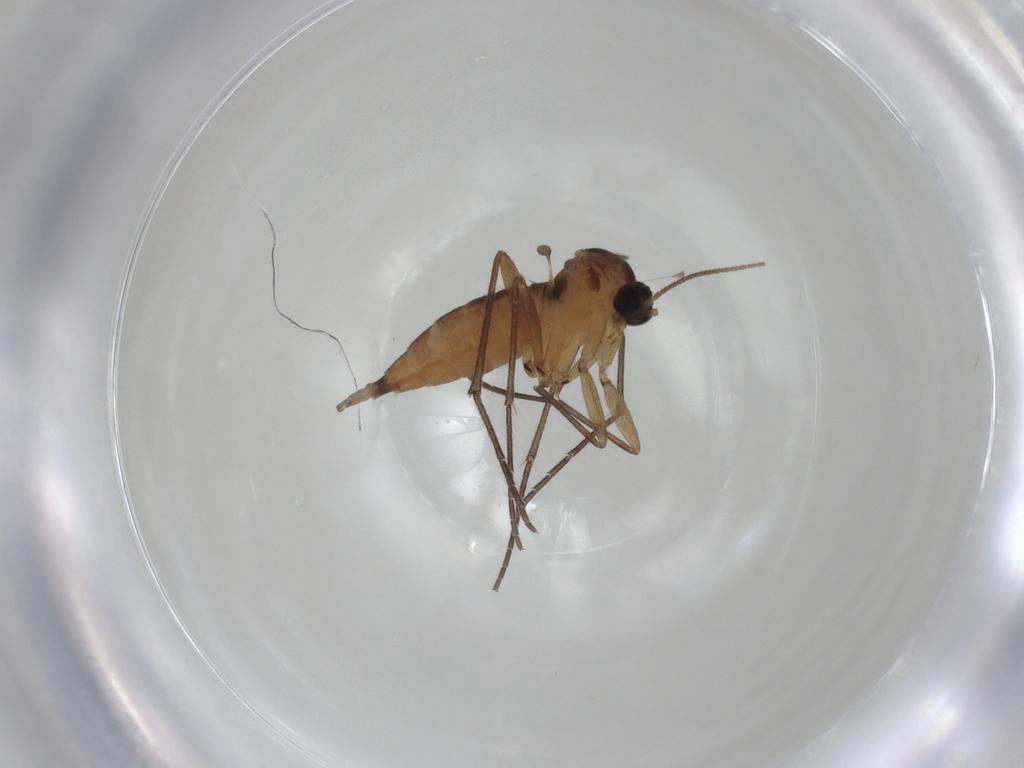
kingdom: Animalia
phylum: Arthropoda
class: Insecta
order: Diptera
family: Sciaridae
